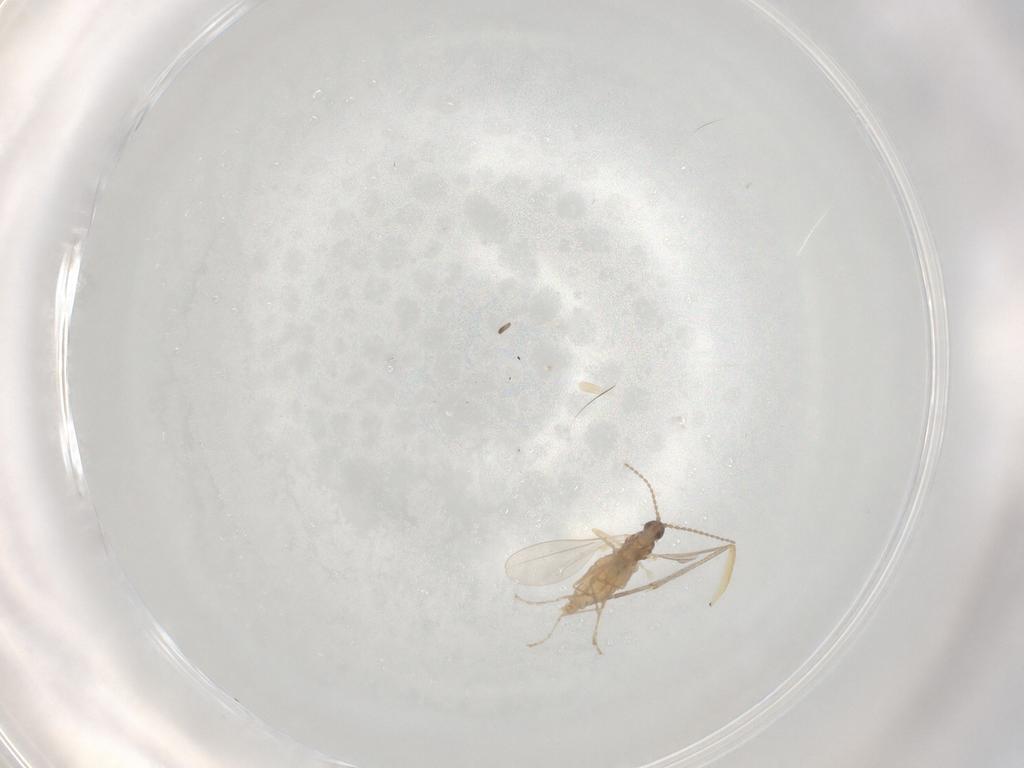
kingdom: Animalia
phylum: Arthropoda
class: Insecta
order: Diptera
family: Cecidomyiidae
